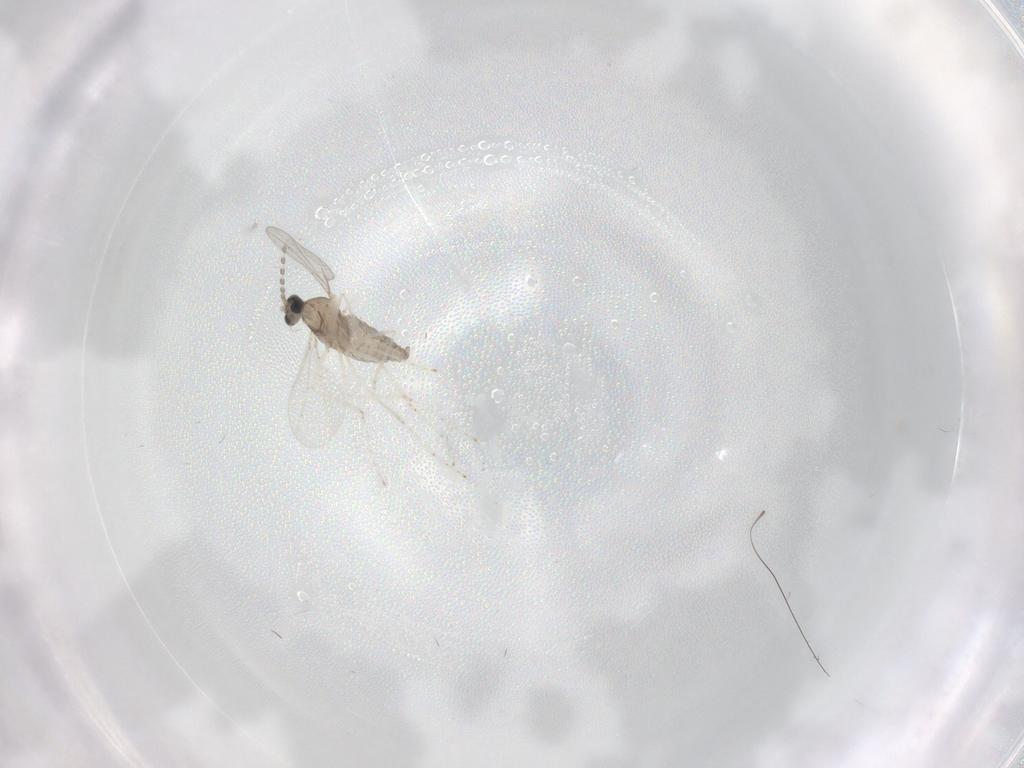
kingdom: Animalia
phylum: Arthropoda
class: Insecta
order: Diptera
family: Cecidomyiidae
